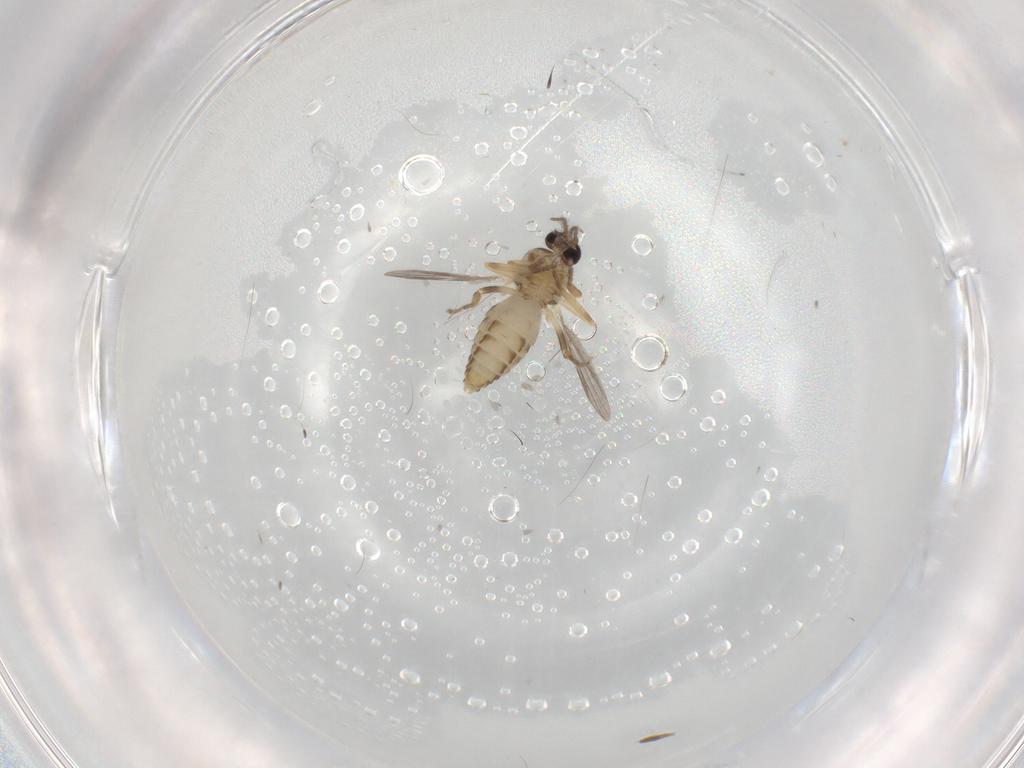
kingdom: Animalia
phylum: Arthropoda
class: Insecta
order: Diptera
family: Ceratopogonidae
